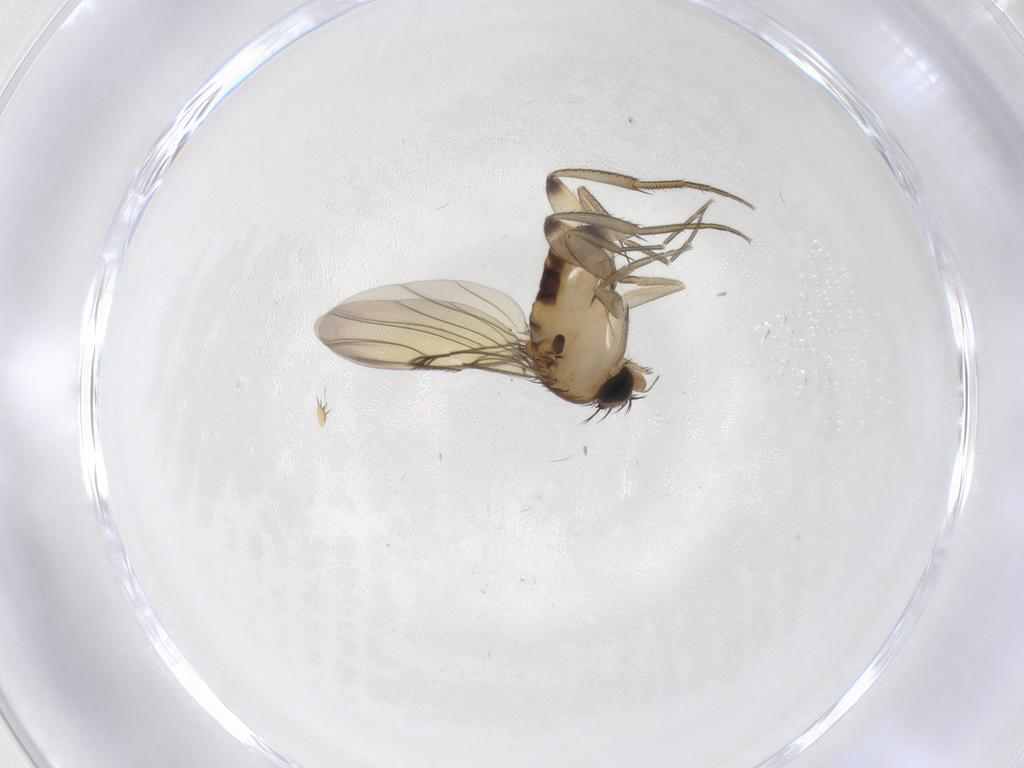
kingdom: Animalia
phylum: Arthropoda
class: Insecta
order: Diptera
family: Phoridae
